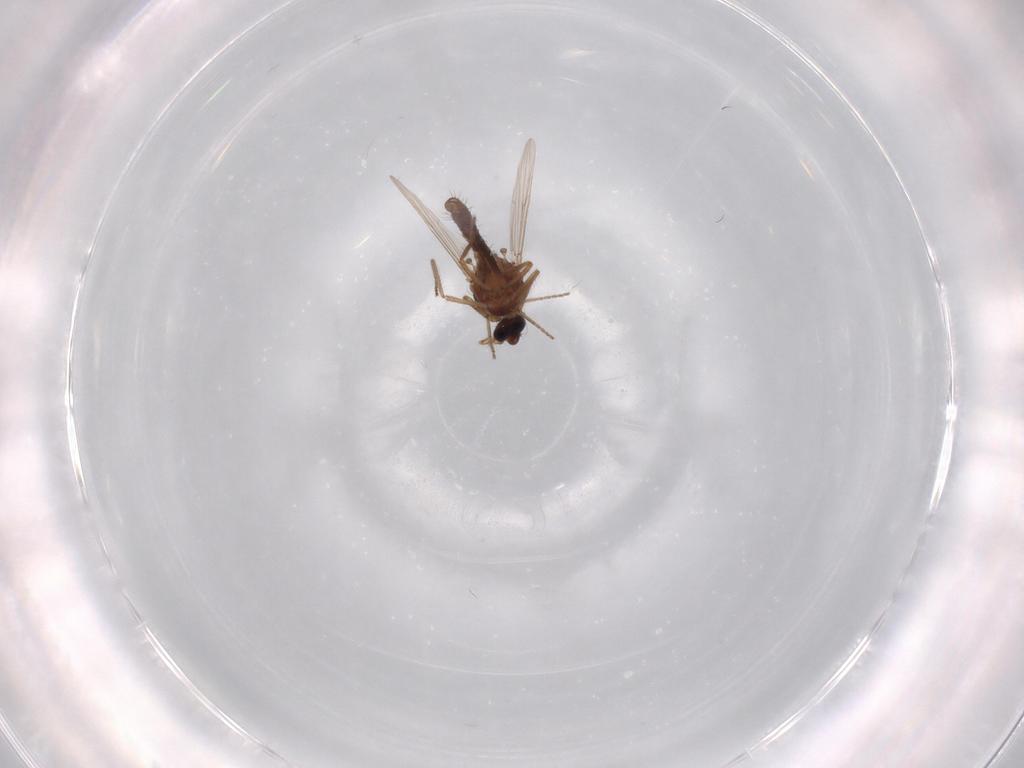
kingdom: Animalia
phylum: Arthropoda
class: Insecta
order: Diptera
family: Ceratopogonidae
